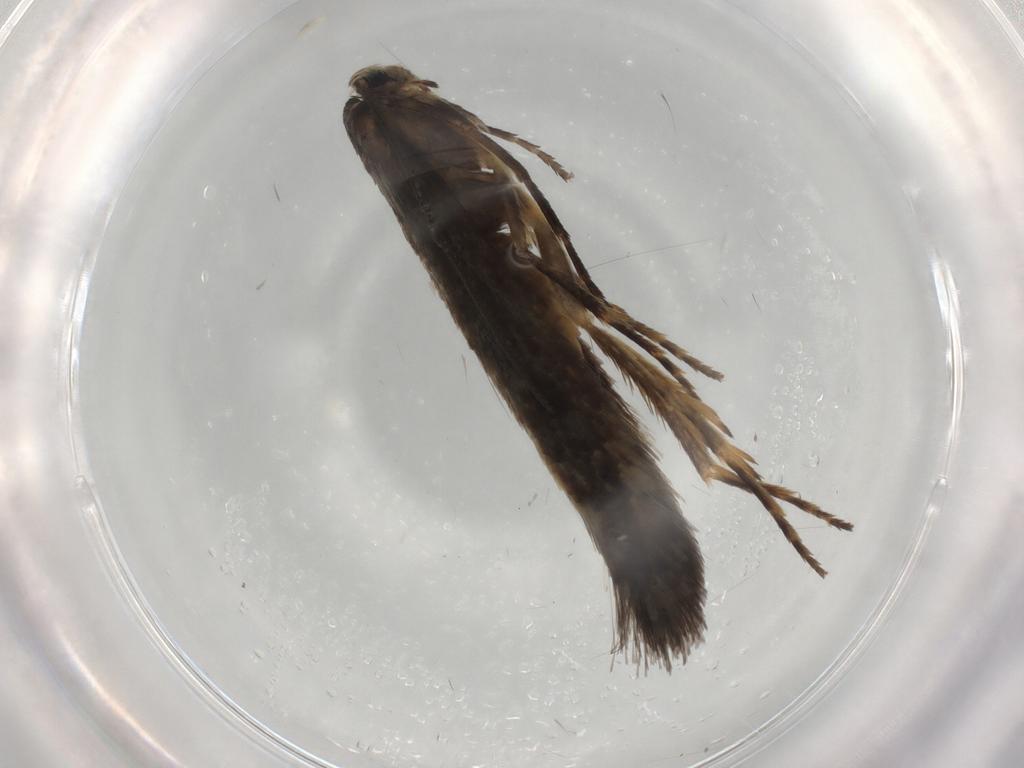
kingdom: Animalia
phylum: Arthropoda
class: Insecta
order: Lepidoptera
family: Nepticulidae
